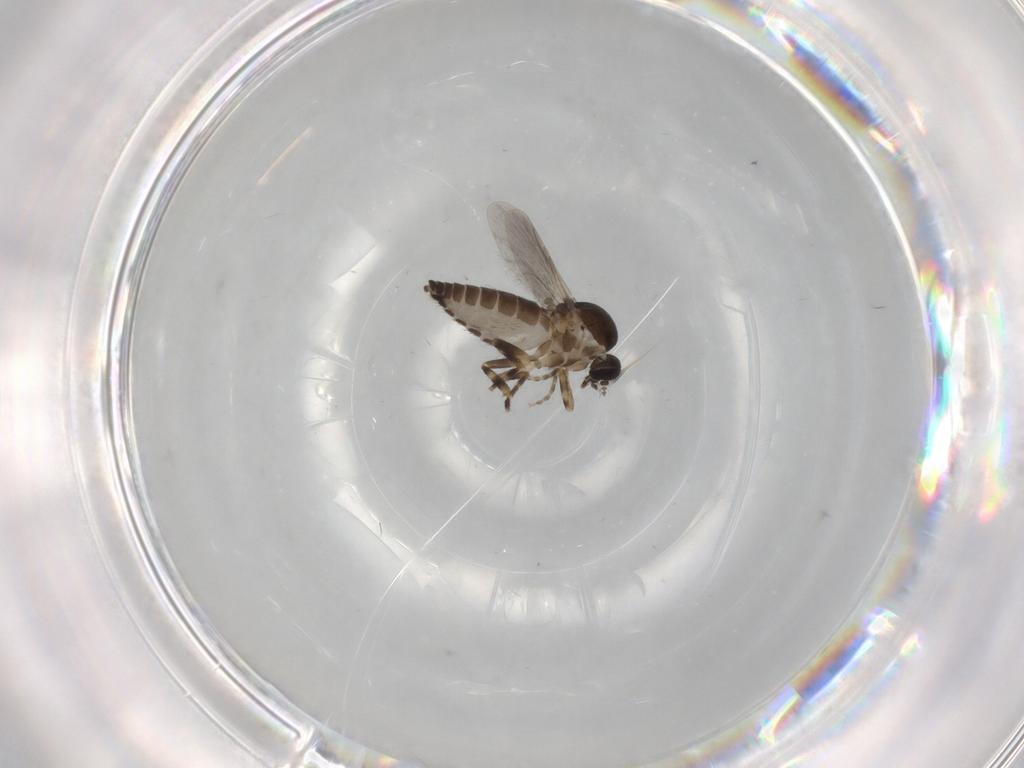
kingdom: Animalia
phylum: Arthropoda
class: Insecta
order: Diptera
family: Ceratopogonidae
